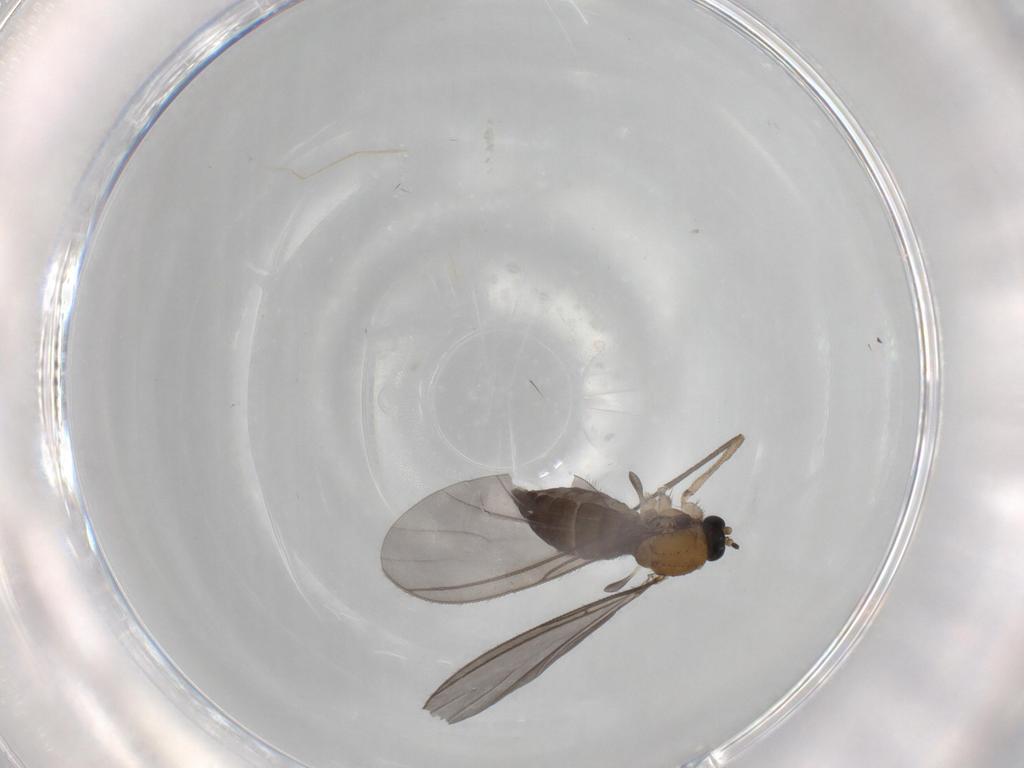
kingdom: Animalia
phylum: Arthropoda
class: Insecta
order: Diptera
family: Sciaridae
